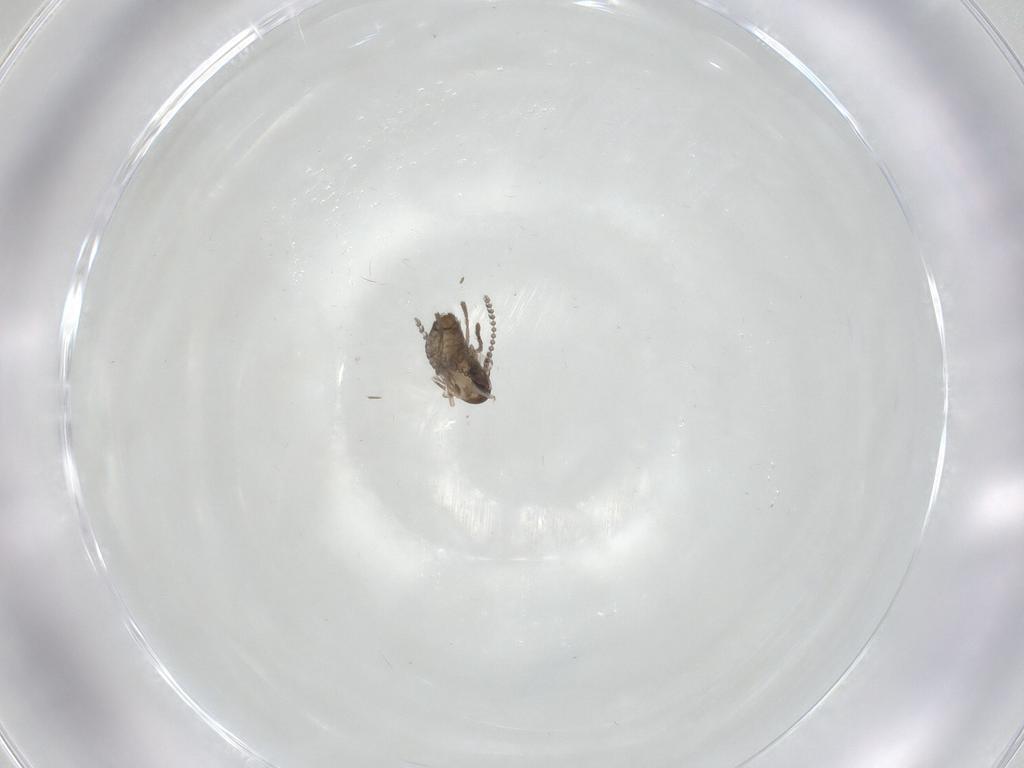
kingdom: Animalia
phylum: Arthropoda
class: Insecta
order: Diptera
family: Psychodidae
